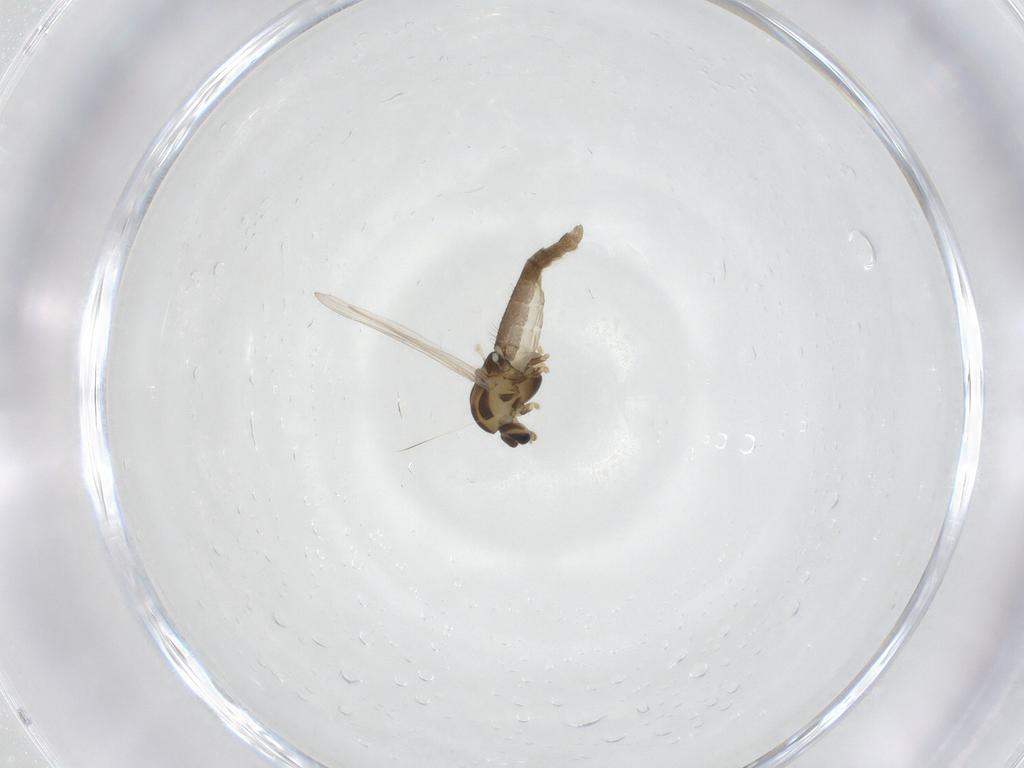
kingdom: Animalia
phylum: Arthropoda
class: Insecta
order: Diptera
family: Chironomidae
